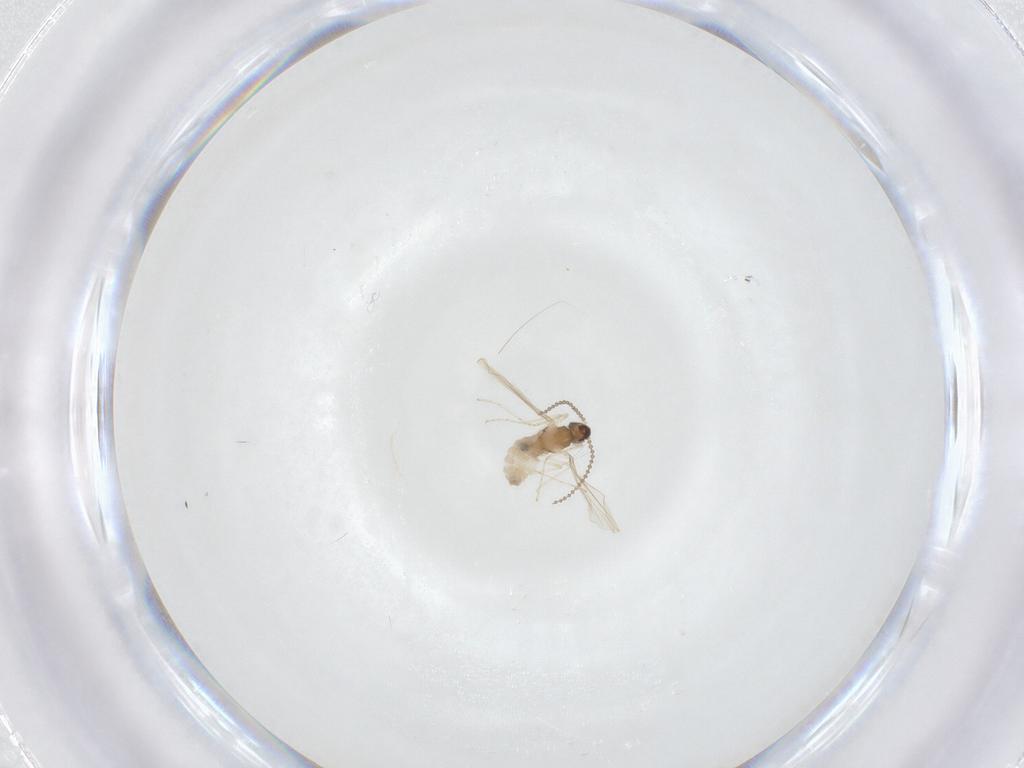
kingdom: Animalia
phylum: Arthropoda
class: Insecta
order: Diptera
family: Cecidomyiidae
